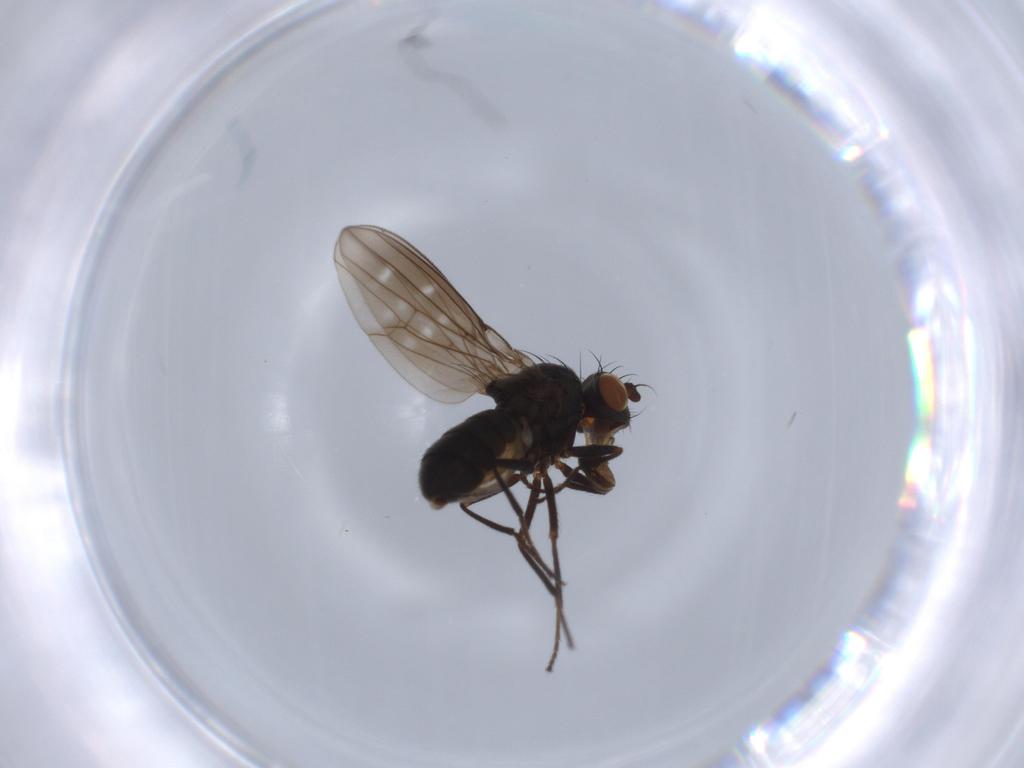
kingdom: Animalia
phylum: Arthropoda
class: Insecta
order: Diptera
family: Ephydridae
